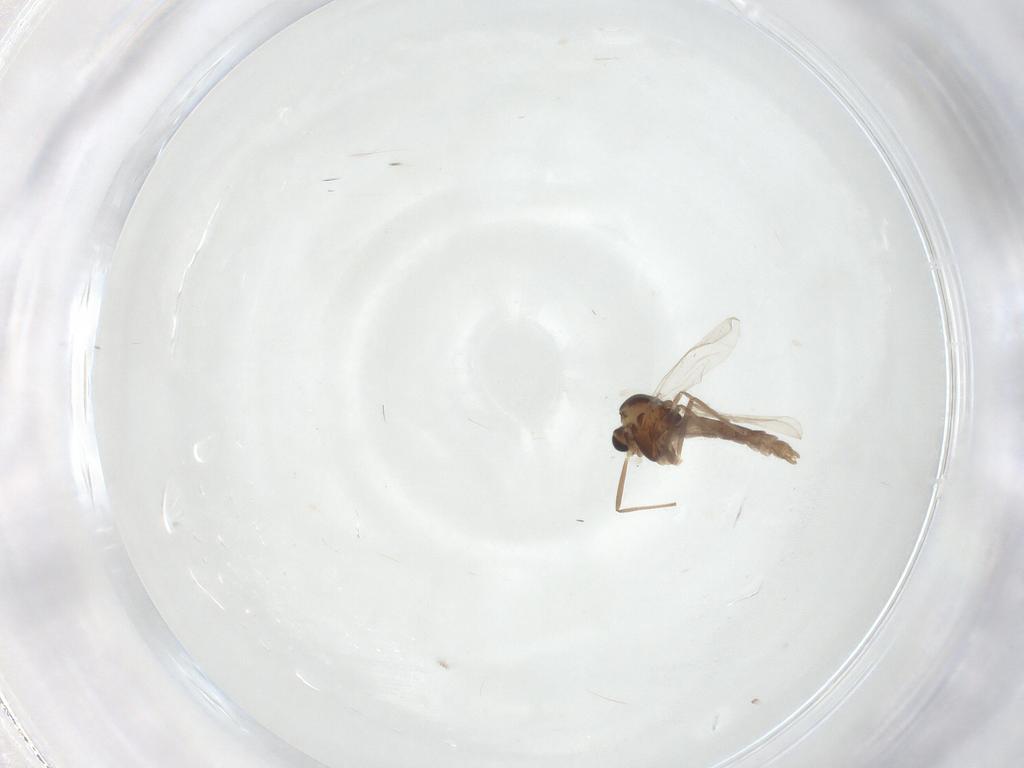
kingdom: Animalia
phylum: Arthropoda
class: Insecta
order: Diptera
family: Chironomidae
